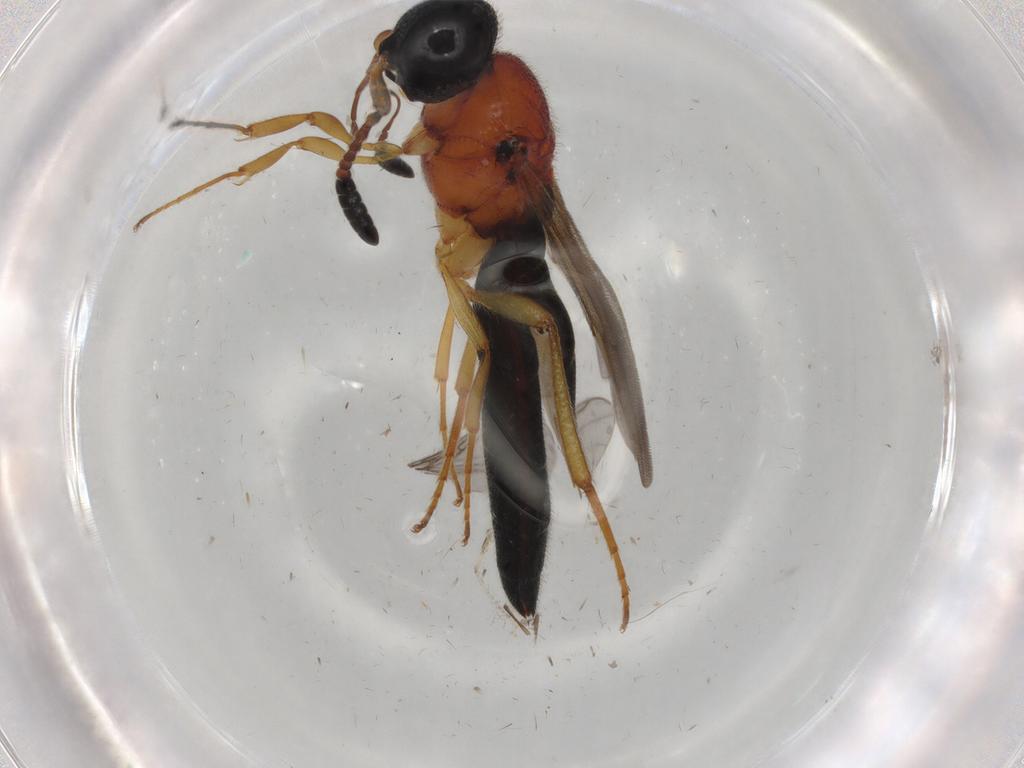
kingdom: Animalia
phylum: Arthropoda
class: Insecta
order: Hymenoptera
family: Scelionidae
